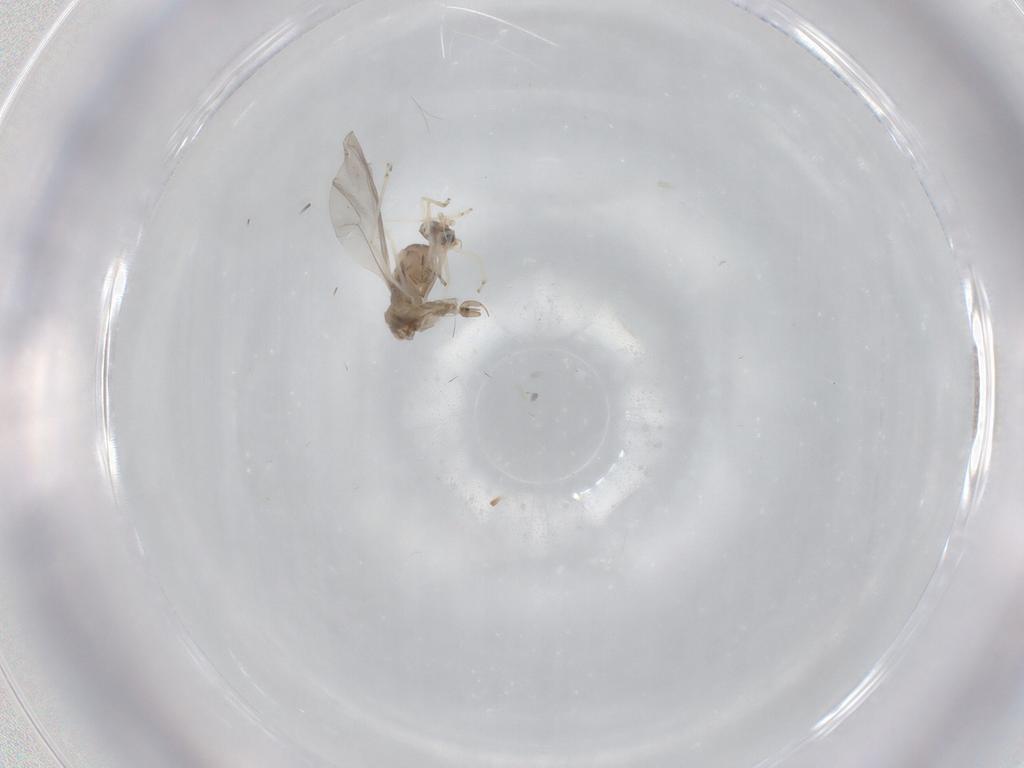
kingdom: Animalia
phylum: Arthropoda
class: Insecta
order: Diptera
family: Cecidomyiidae
